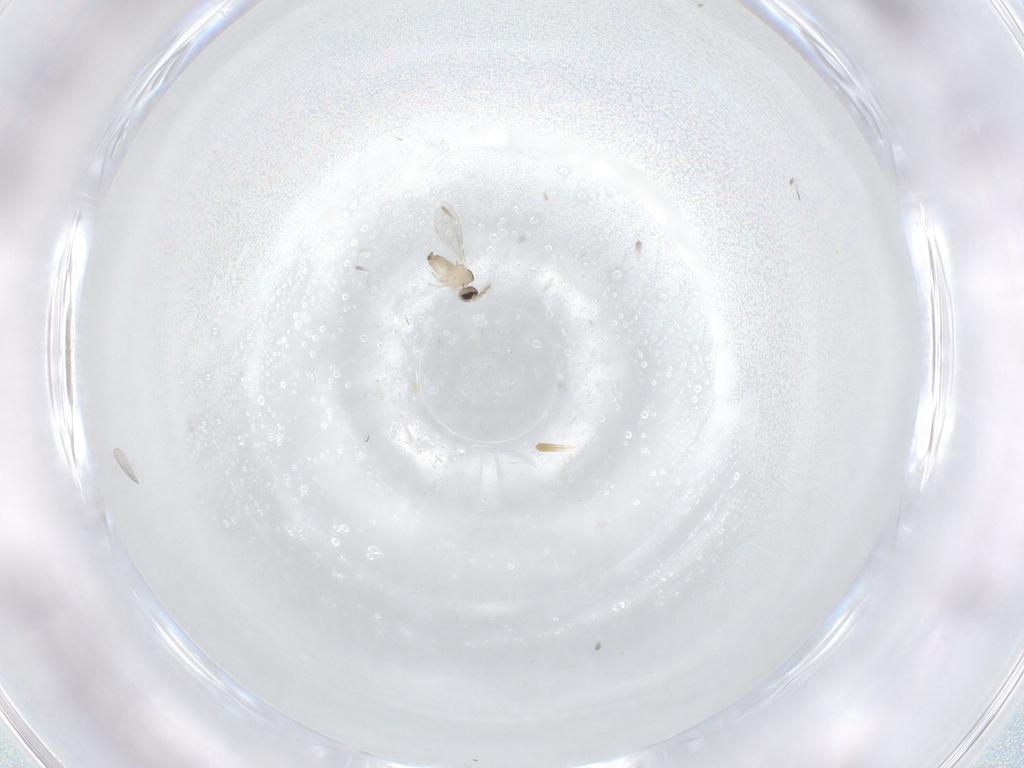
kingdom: Animalia
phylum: Arthropoda
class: Insecta
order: Diptera
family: Cecidomyiidae
